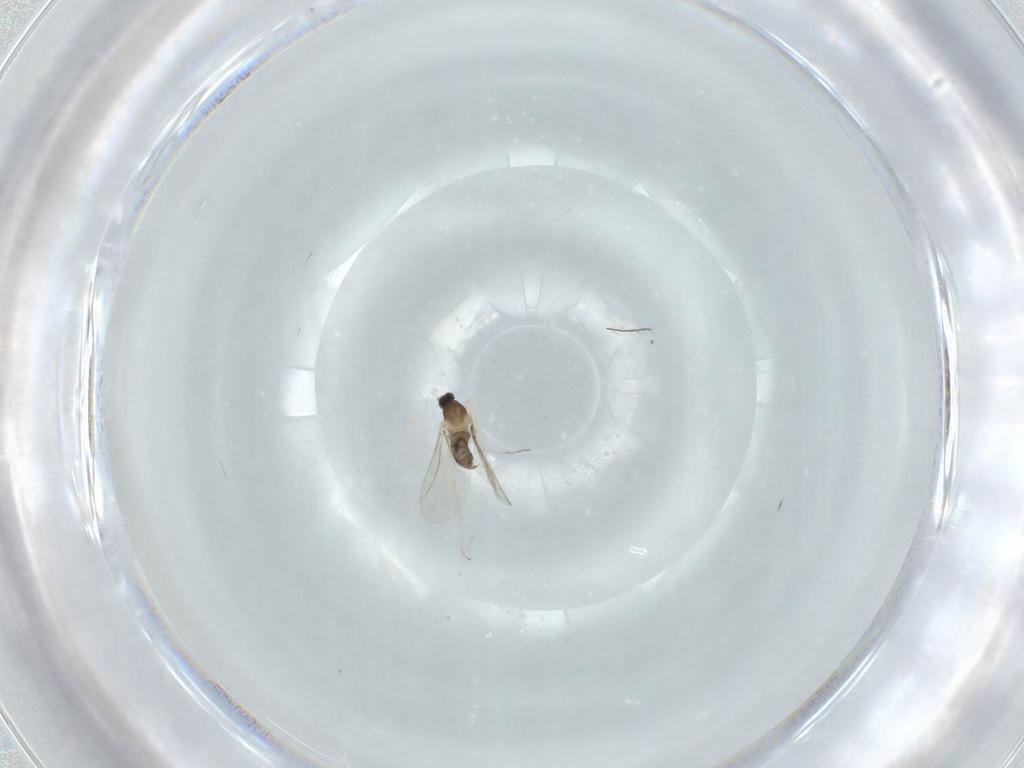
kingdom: Animalia
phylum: Arthropoda
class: Insecta
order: Diptera
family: Cecidomyiidae
